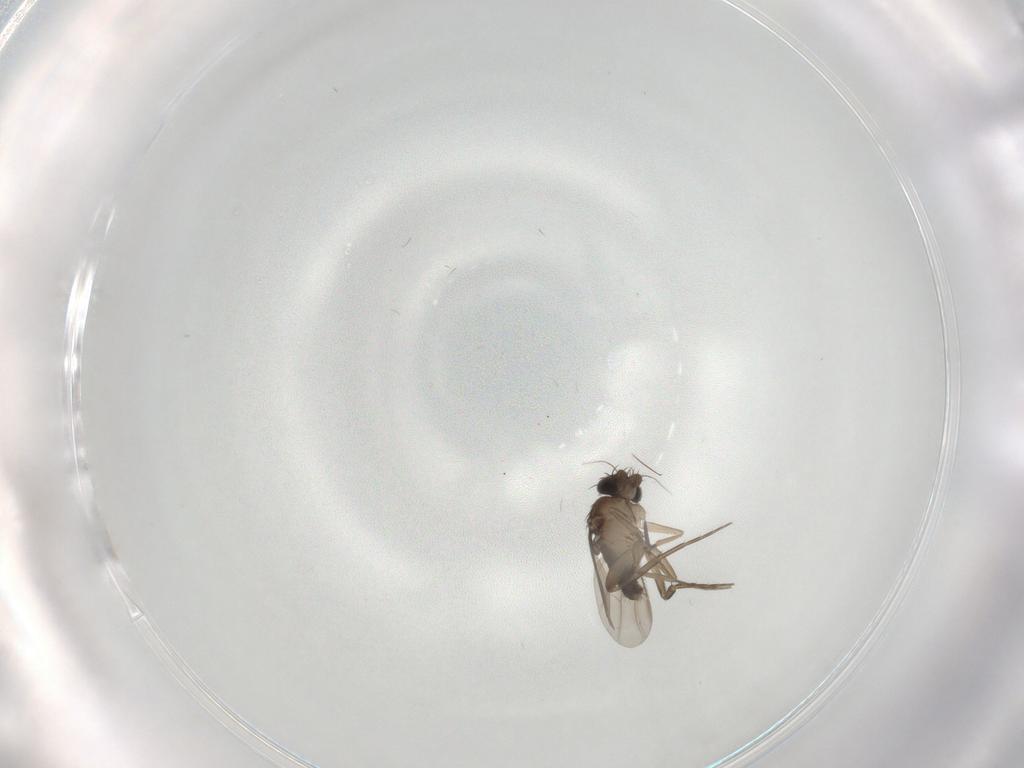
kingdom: Animalia
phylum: Arthropoda
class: Insecta
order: Diptera
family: Phoridae
